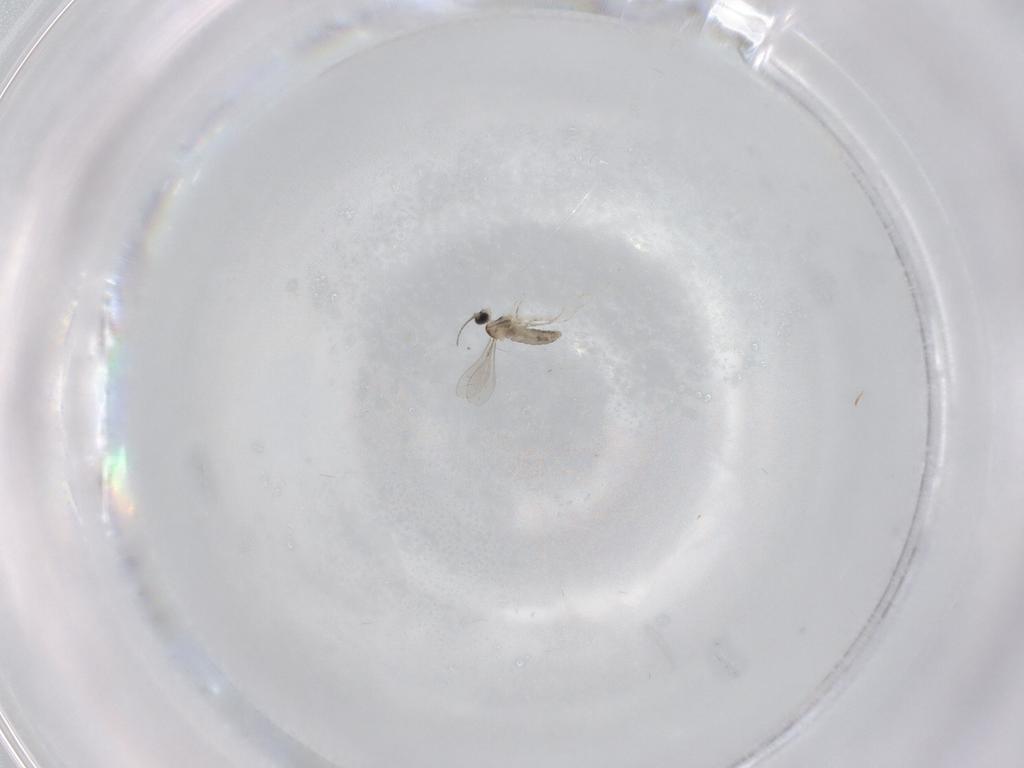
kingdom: Animalia
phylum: Arthropoda
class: Insecta
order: Diptera
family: Cecidomyiidae
